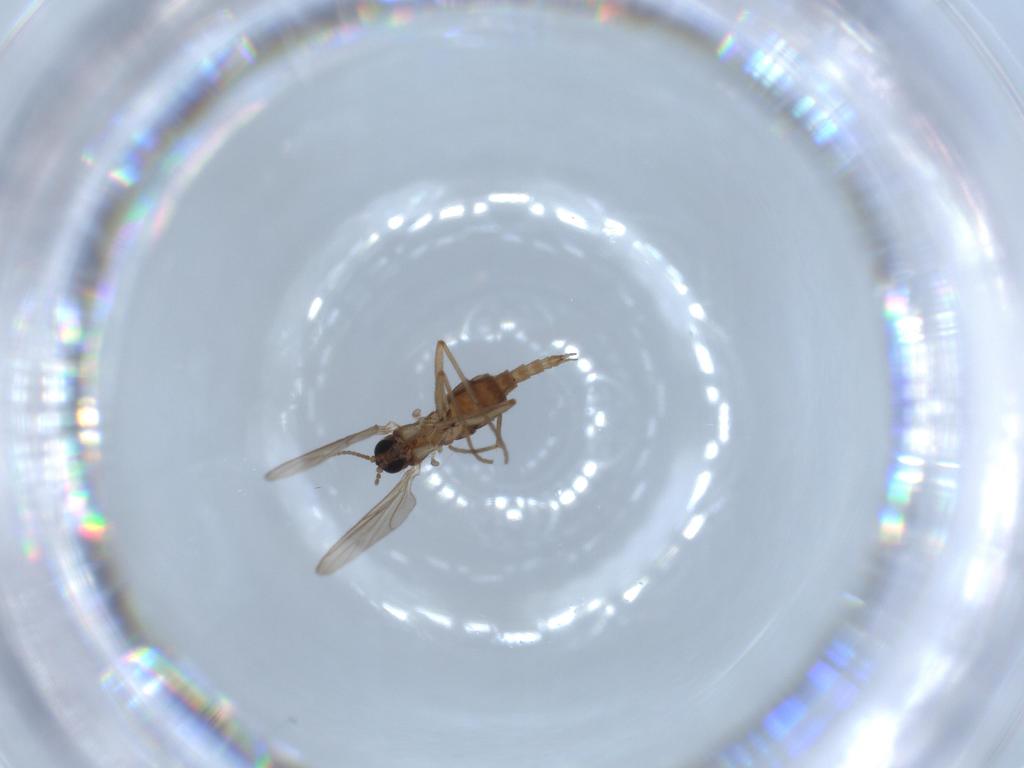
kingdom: Animalia
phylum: Arthropoda
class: Insecta
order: Diptera
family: Sciaridae
